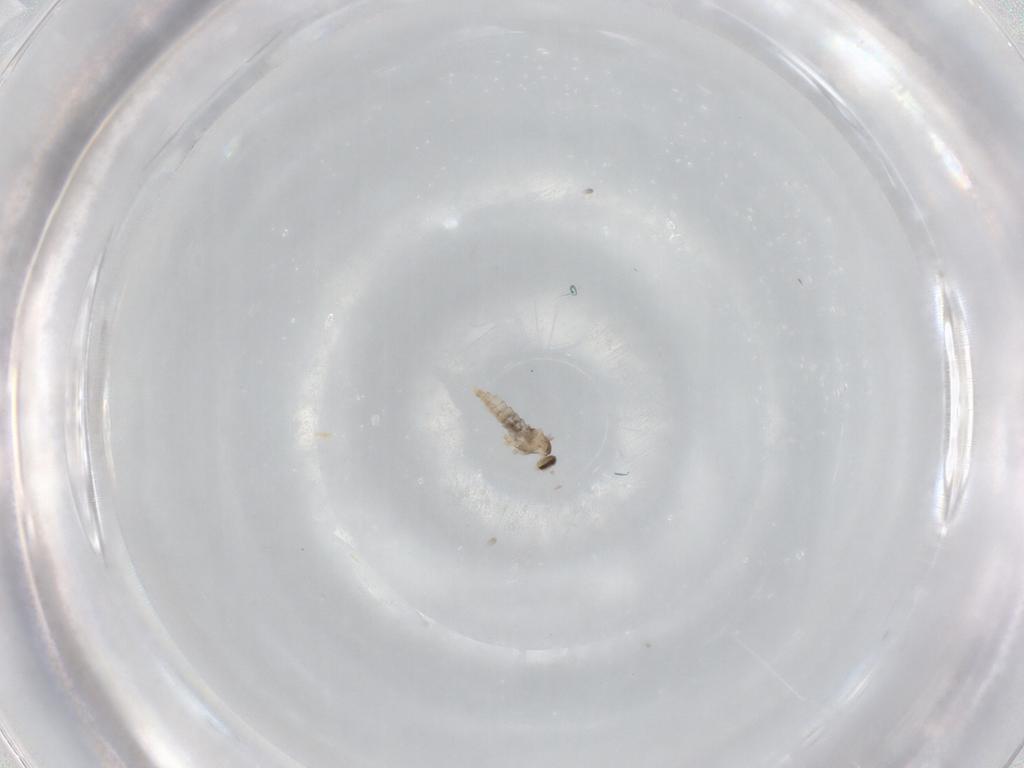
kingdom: Animalia
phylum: Arthropoda
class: Insecta
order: Diptera
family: Cecidomyiidae
